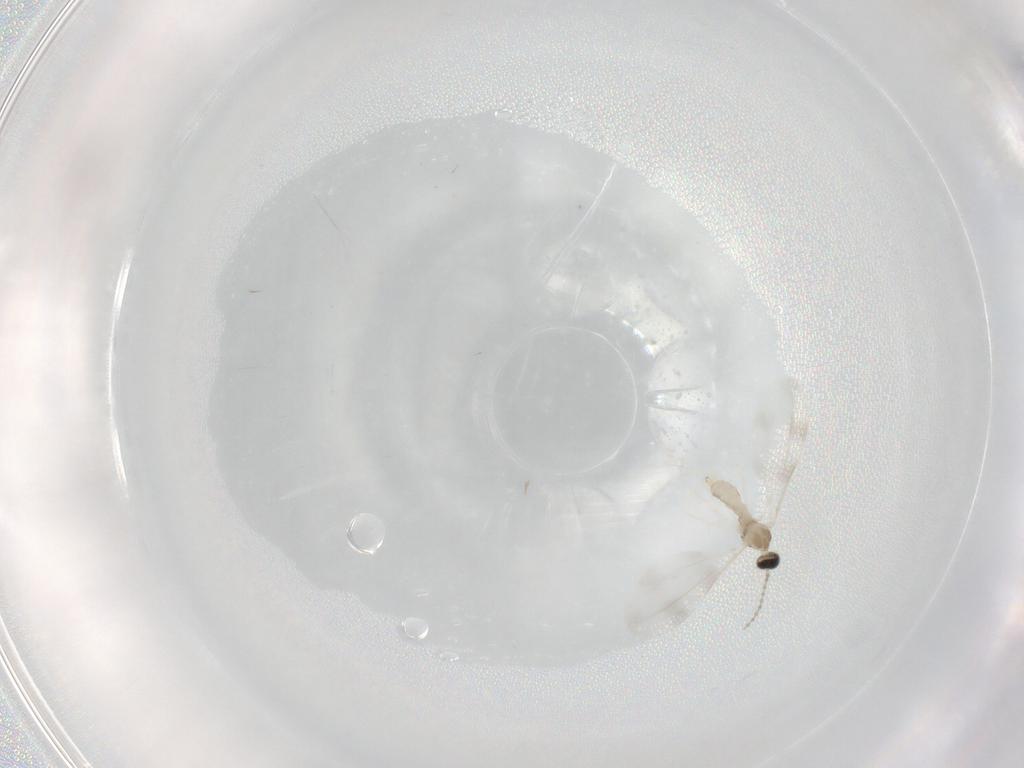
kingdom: Animalia
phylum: Arthropoda
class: Insecta
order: Diptera
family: Cecidomyiidae
